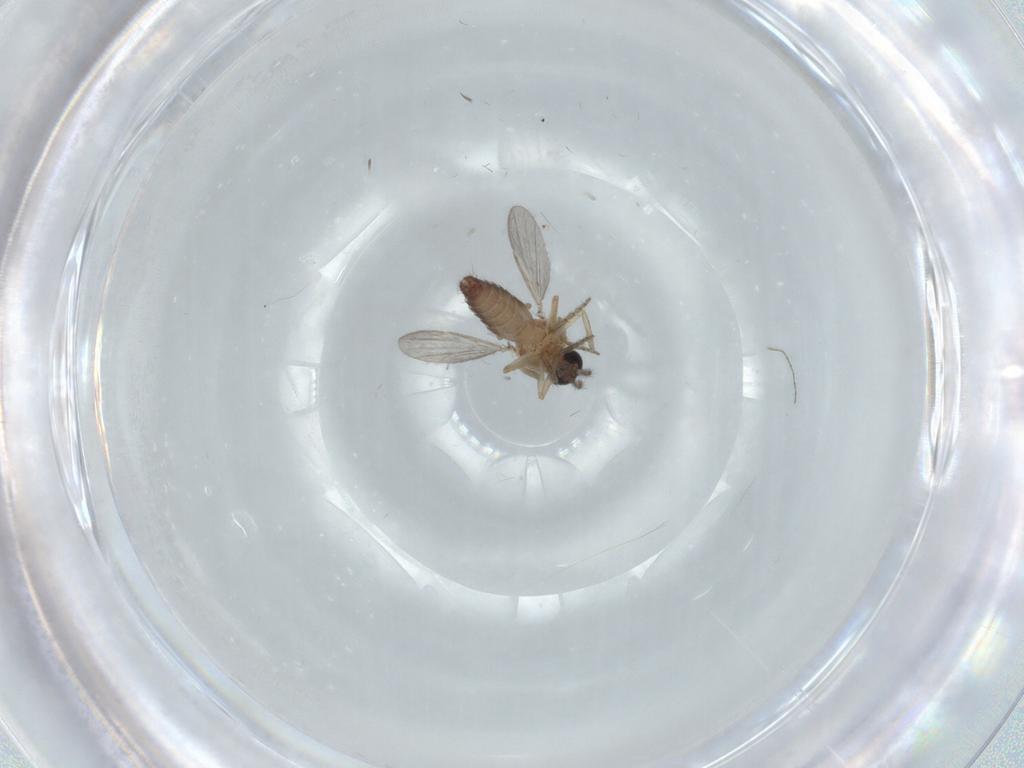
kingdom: Animalia
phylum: Arthropoda
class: Insecta
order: Diptera
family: Ceratopogonidae
